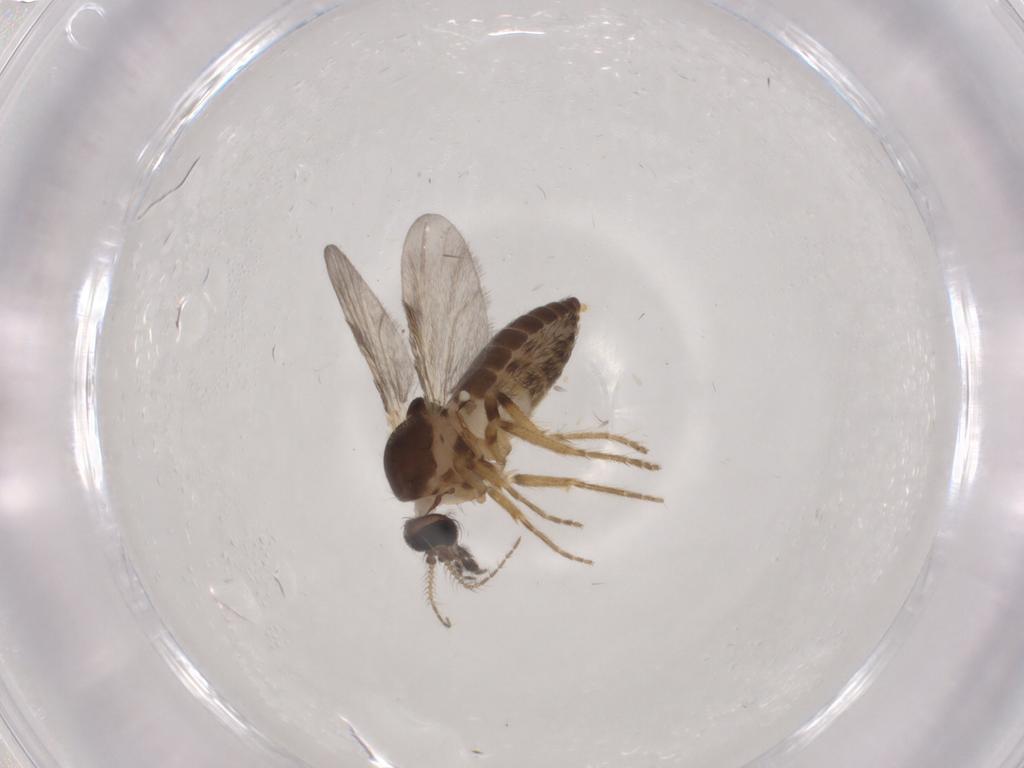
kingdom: Animalia
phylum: Arthropoda
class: Insecta
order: Diptera
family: Ceratopogonidae
